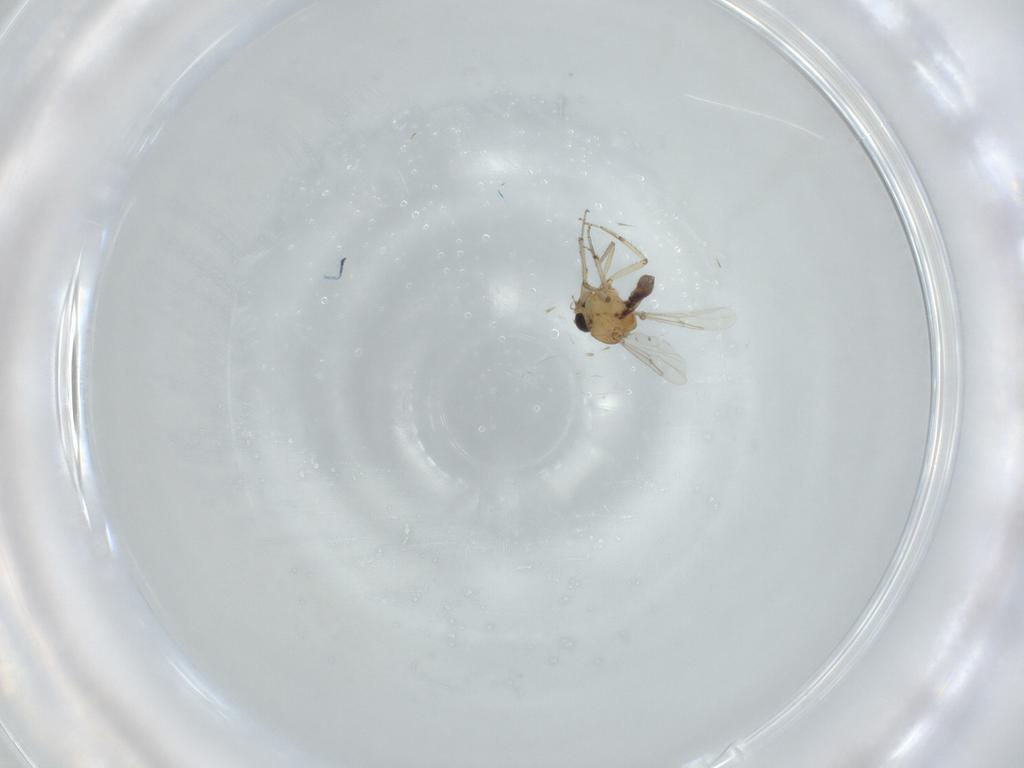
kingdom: Animalia
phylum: Arthropoda
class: Insecta
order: Diptera
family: Ceratopogonidae
